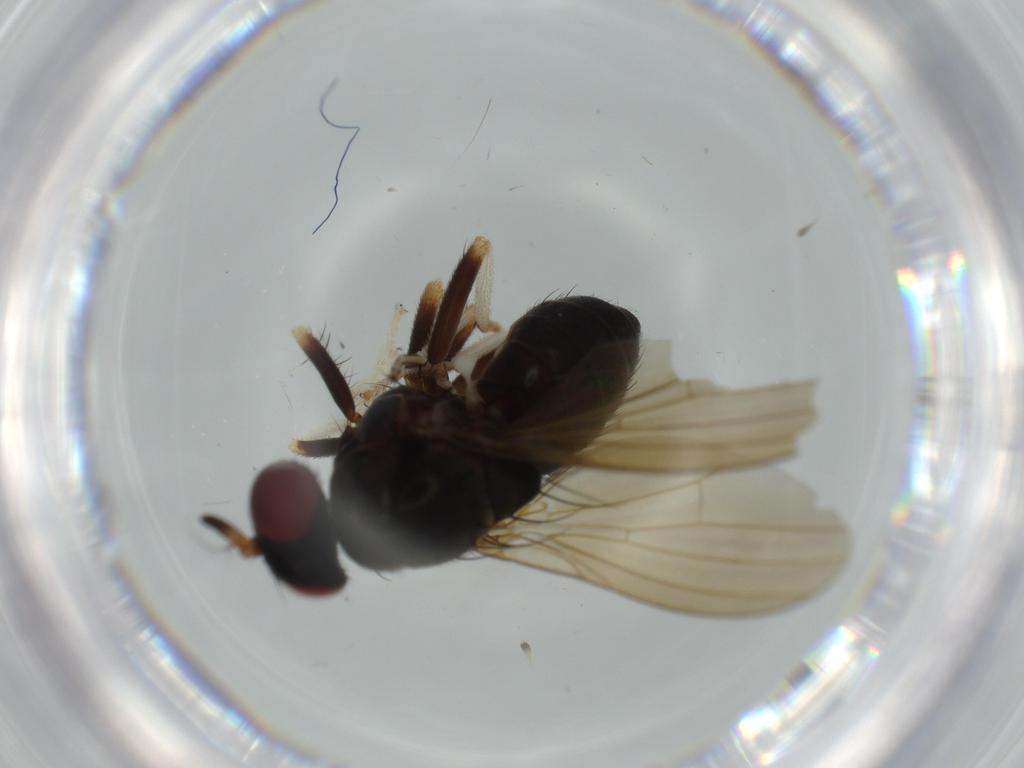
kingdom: Animalia
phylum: Arthropoda
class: Insecta
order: Diptera
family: Lauxaniidae
